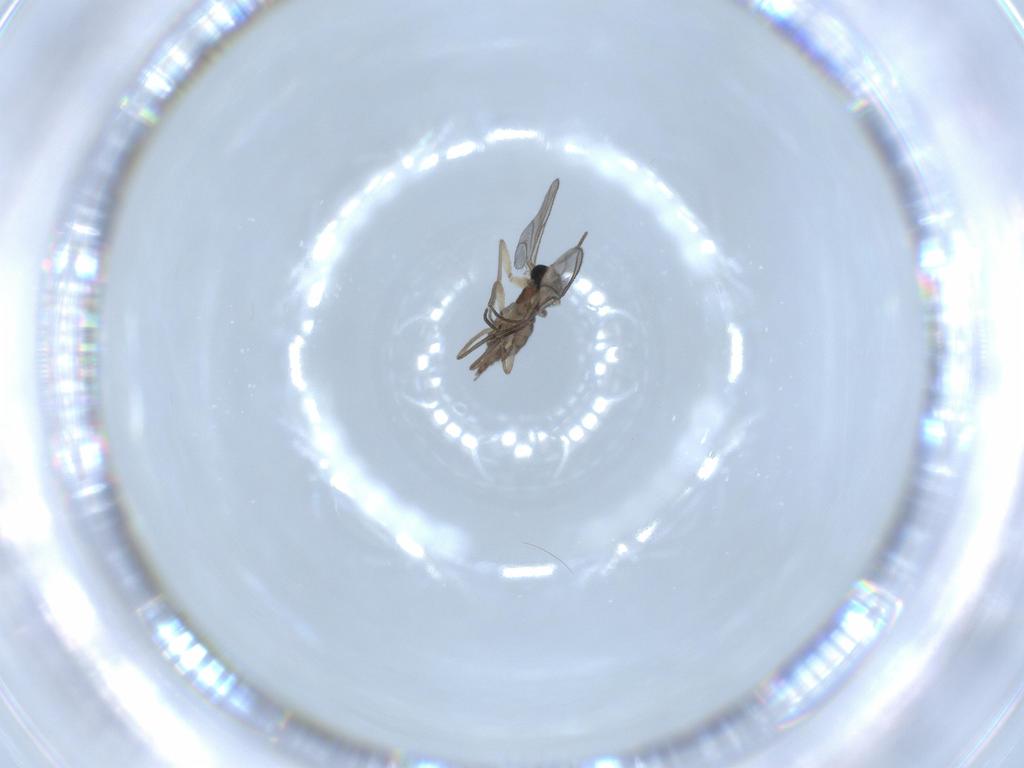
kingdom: Animalia
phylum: Arthropoda
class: Insecta
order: Diptera
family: Sciaridae
